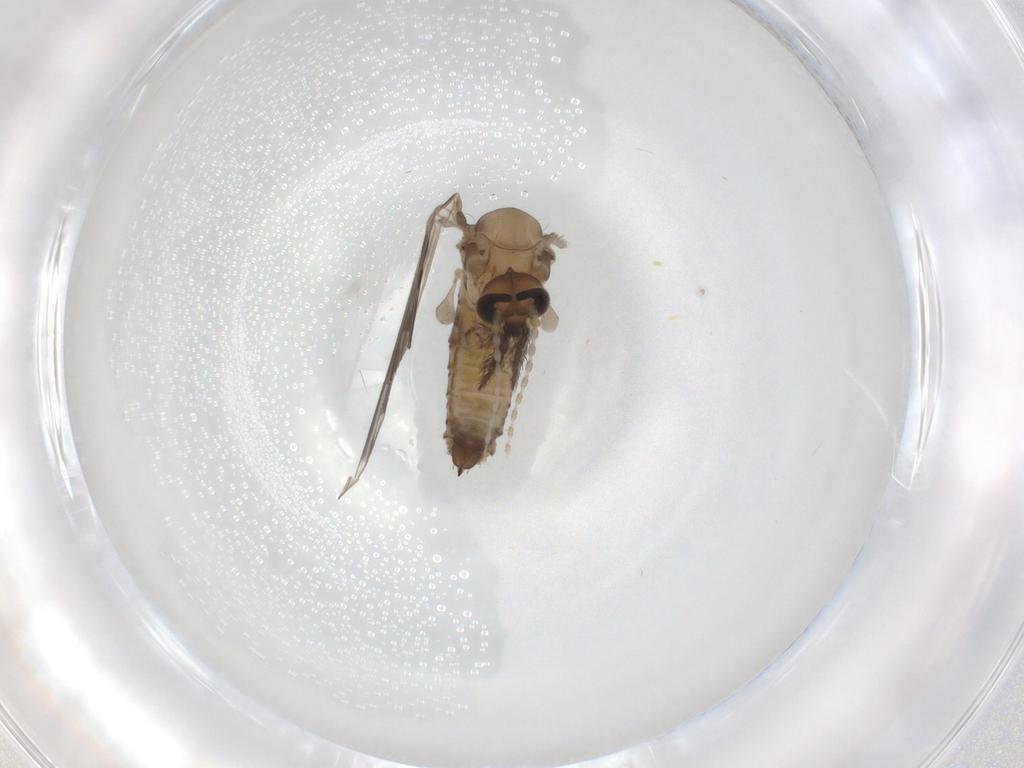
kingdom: Animalia
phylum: Arthropoda
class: Insecta
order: Diptera
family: Psychodidae
